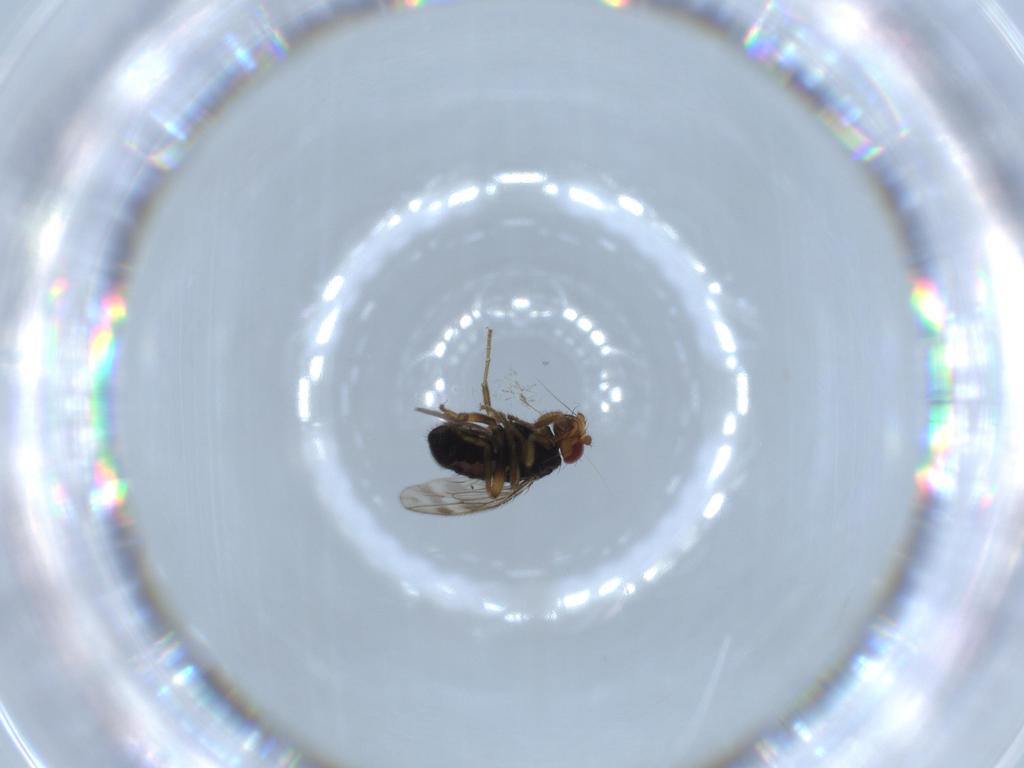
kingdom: Animalia
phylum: Arthropoda
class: Insecta
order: Diptera
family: Sphaeroceridae
